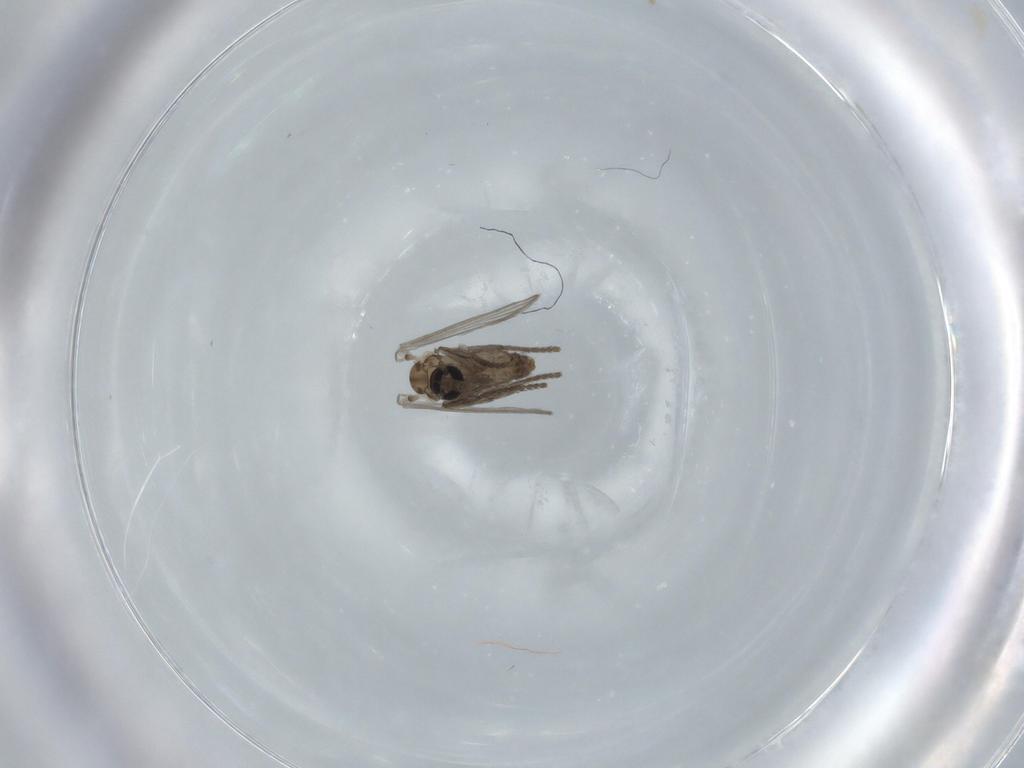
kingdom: Animalia
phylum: Arthropoda
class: Insecta
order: Diptera
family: Psychodidae
